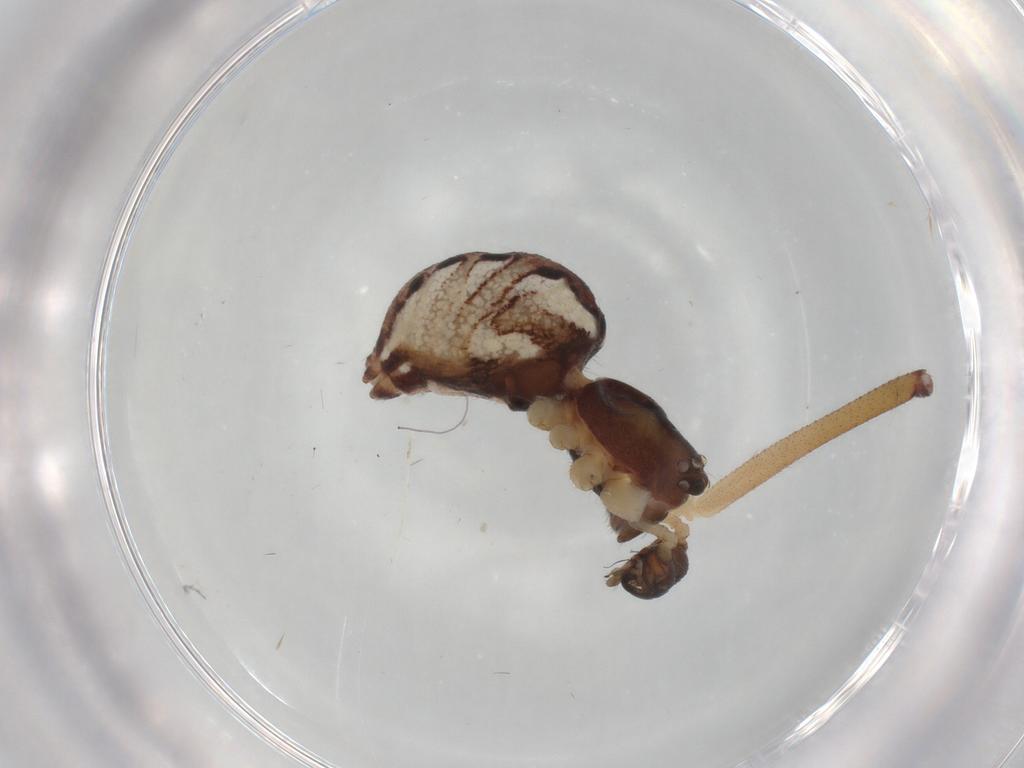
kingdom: Animalia
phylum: Arthropoda
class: Arachnida
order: Araneae
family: Theridiidae
